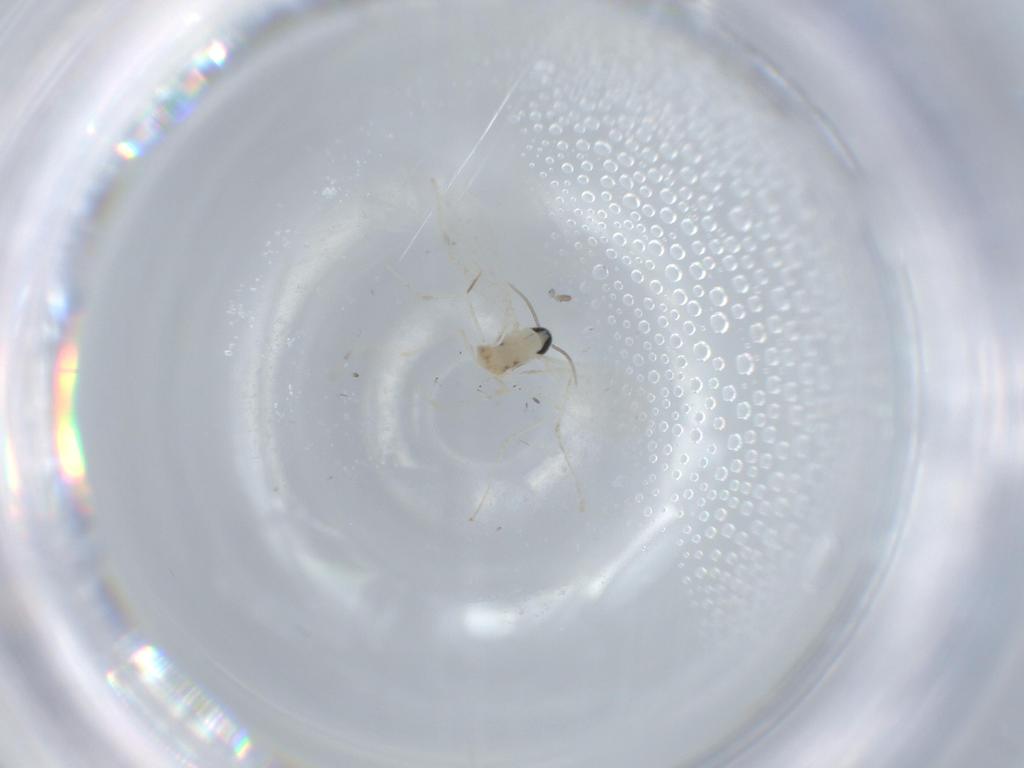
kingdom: Animalia
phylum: Arthropoda
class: Insecta
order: Diptera
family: Cecidomyiidae
